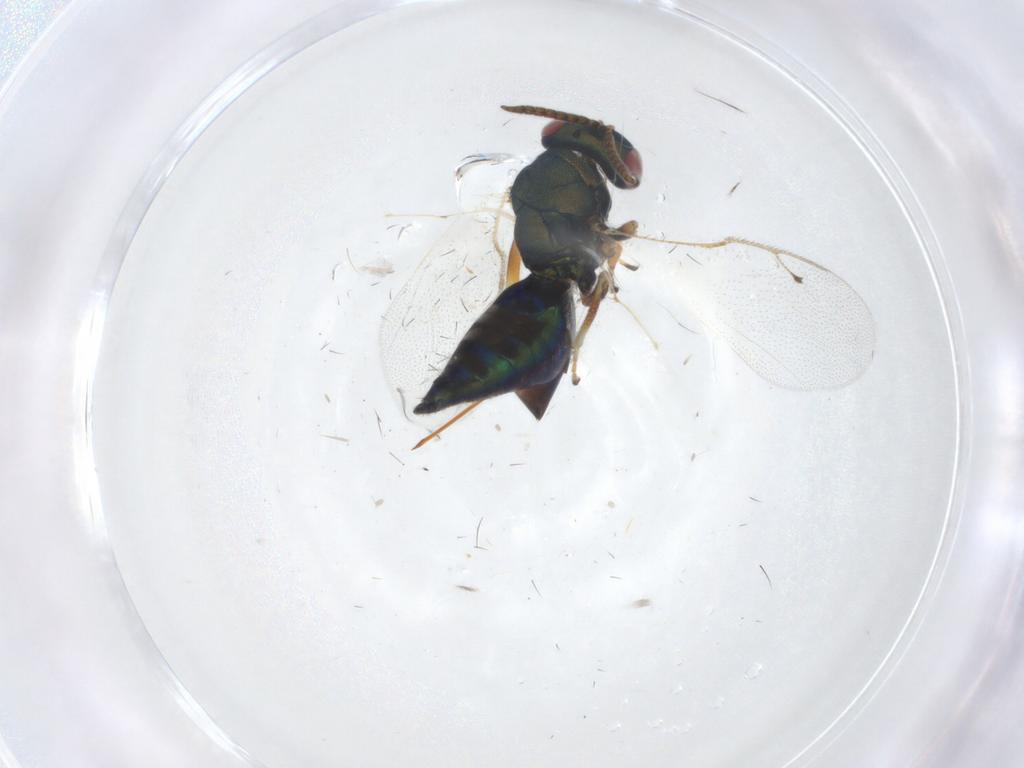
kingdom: Animalia
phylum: Arthropoda
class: Insecta
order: Hymenoptera
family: Pteromalidae
